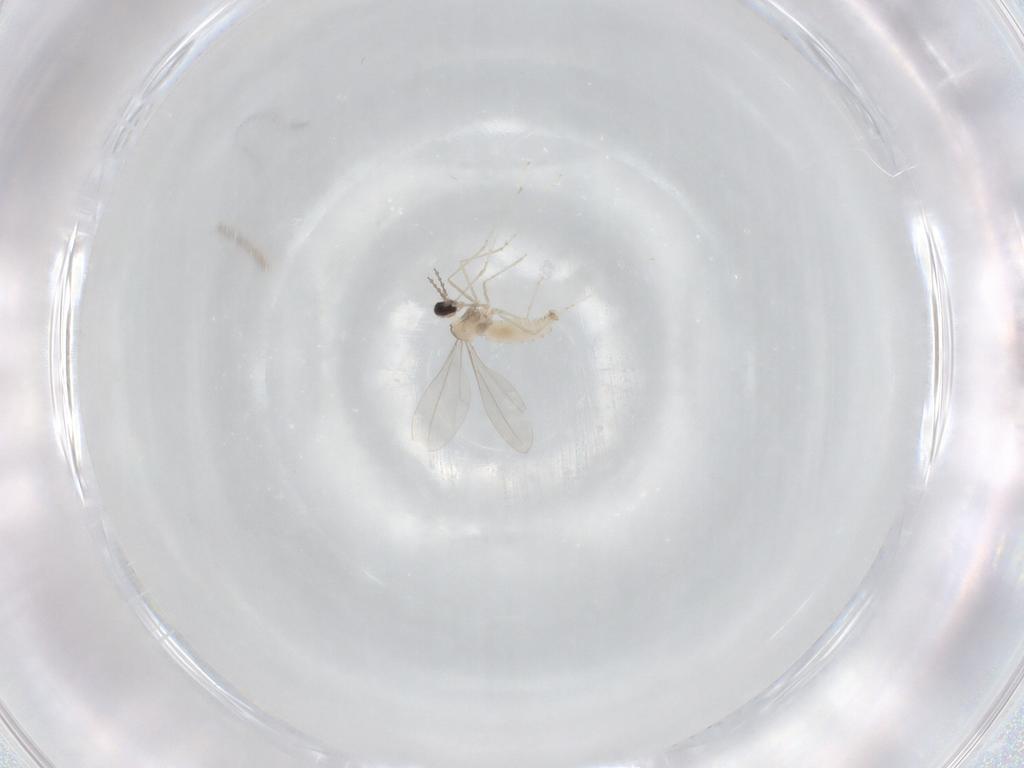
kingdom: Animalia
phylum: Arthropoda
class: Insecta
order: Diptera
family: Cecidomyiidae
